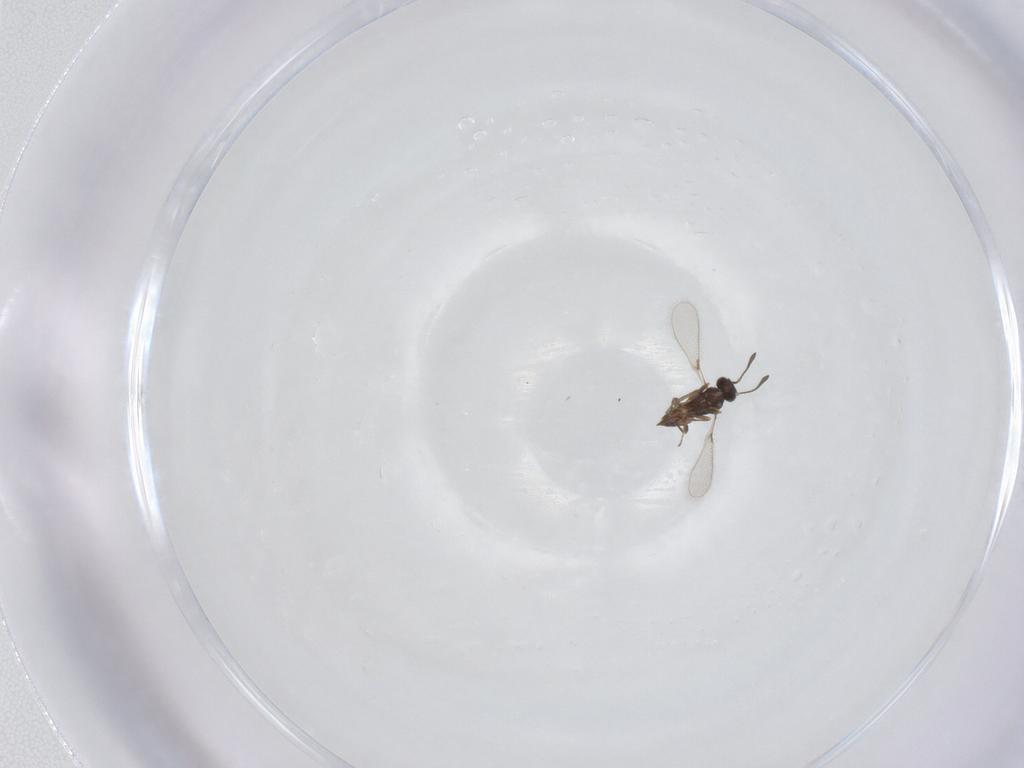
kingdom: Animalia
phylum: Arthropoda
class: Insecta
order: Hymenoptera
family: Mymaridae
